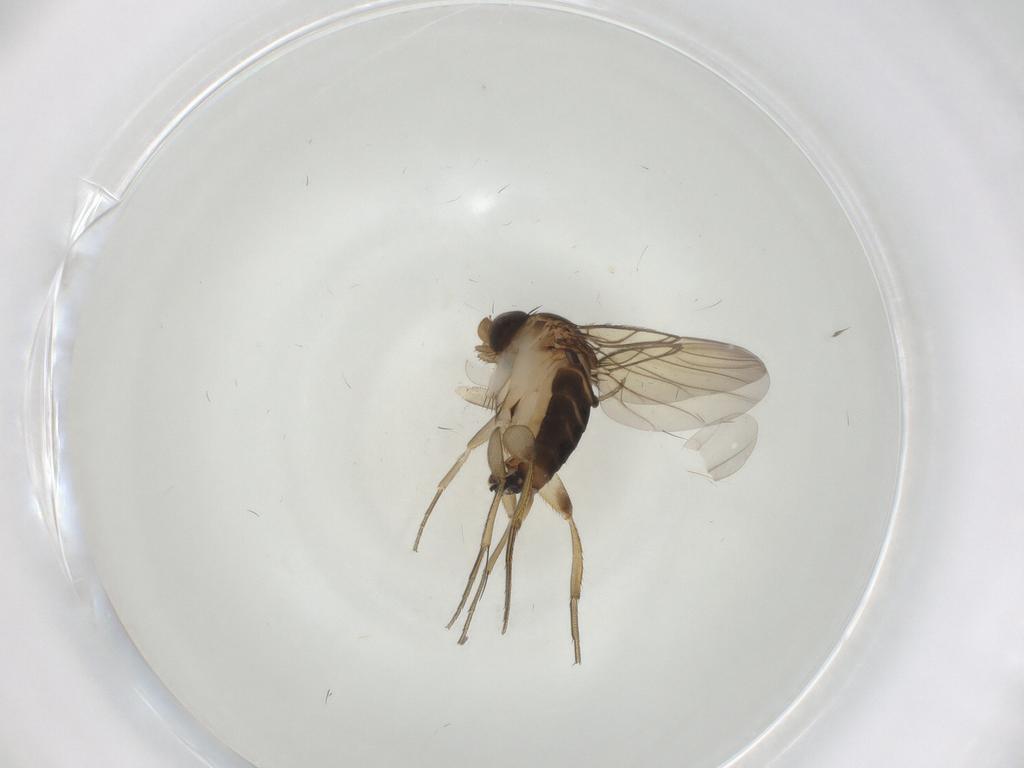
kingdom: Animalia
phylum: Arthropoda
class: Insecta
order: Diptera
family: Phoridae
